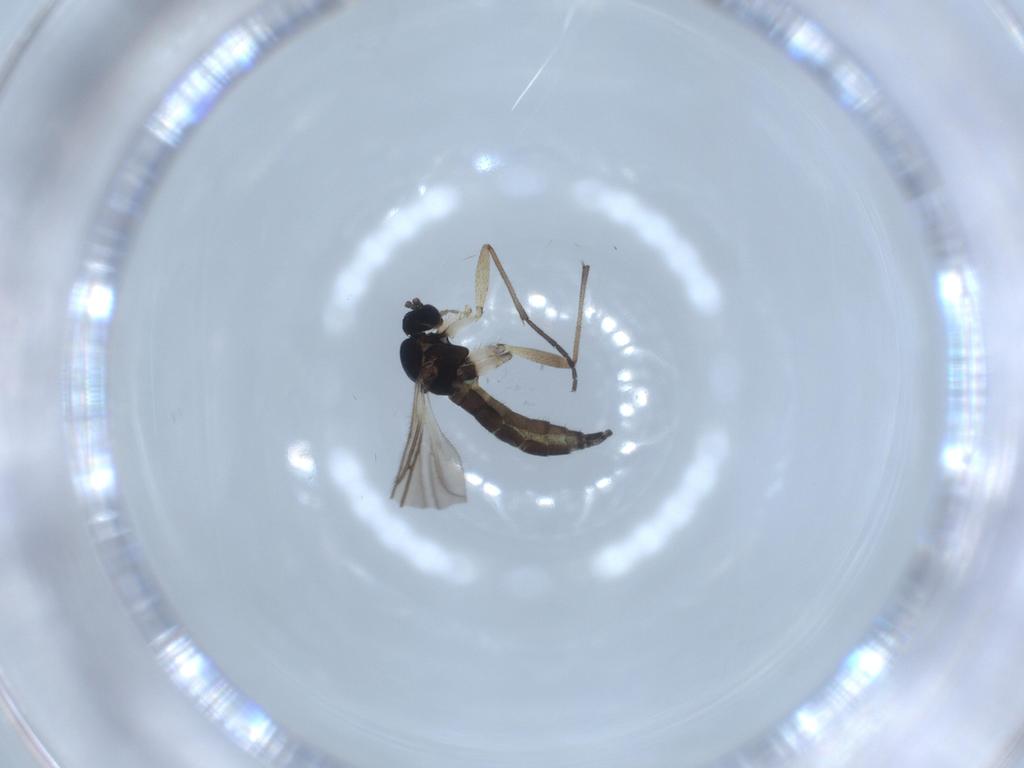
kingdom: Animalia
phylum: Arthropoda
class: Insecta
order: Diptera
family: Sciaridae
